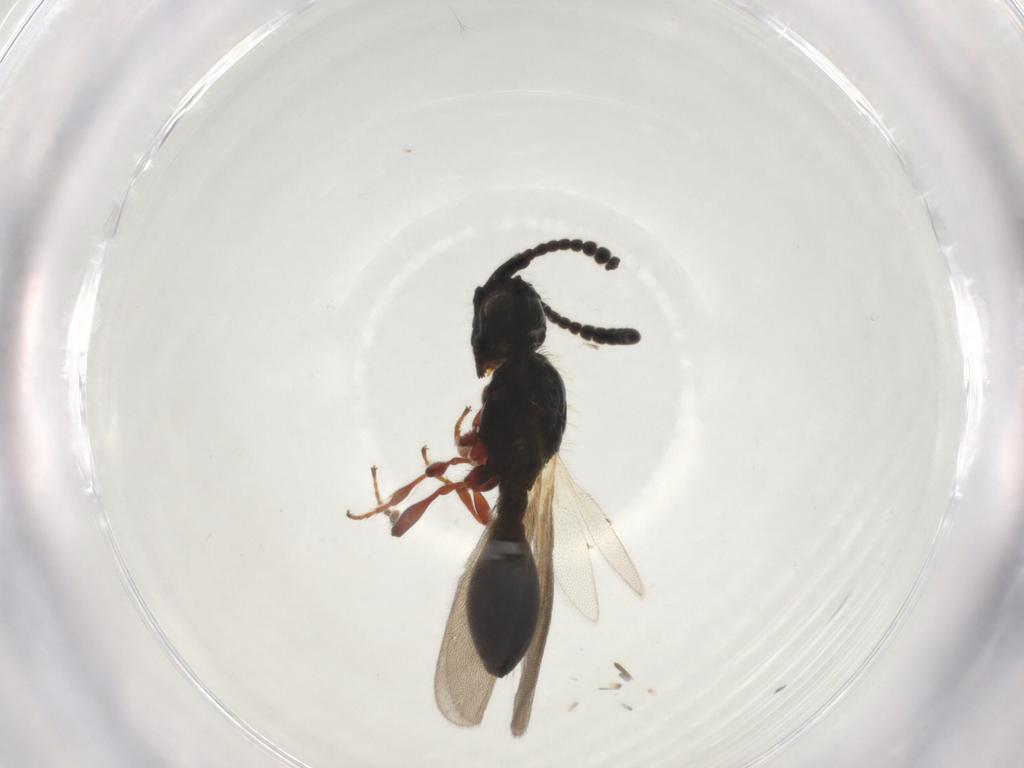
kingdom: Animalia
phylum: Arthropoda
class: Insecta
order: Hymenoptera
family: Diapriidae
